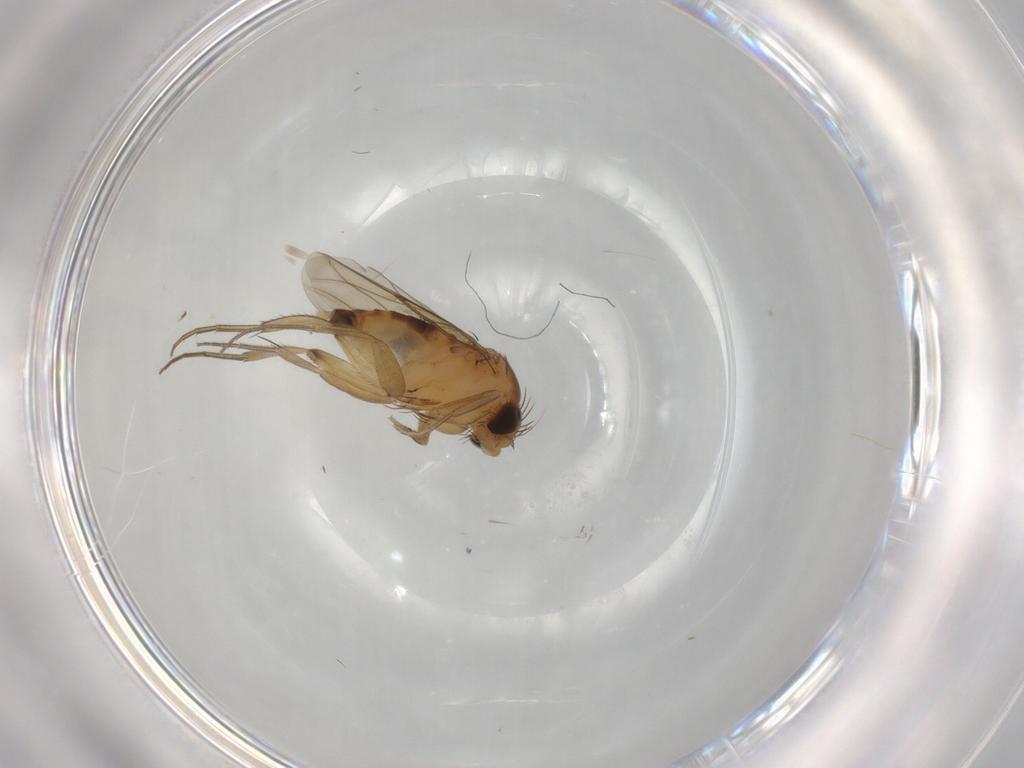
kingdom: Animalia
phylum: Arthropoda
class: Insecta
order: Diptera
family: Phoridae
